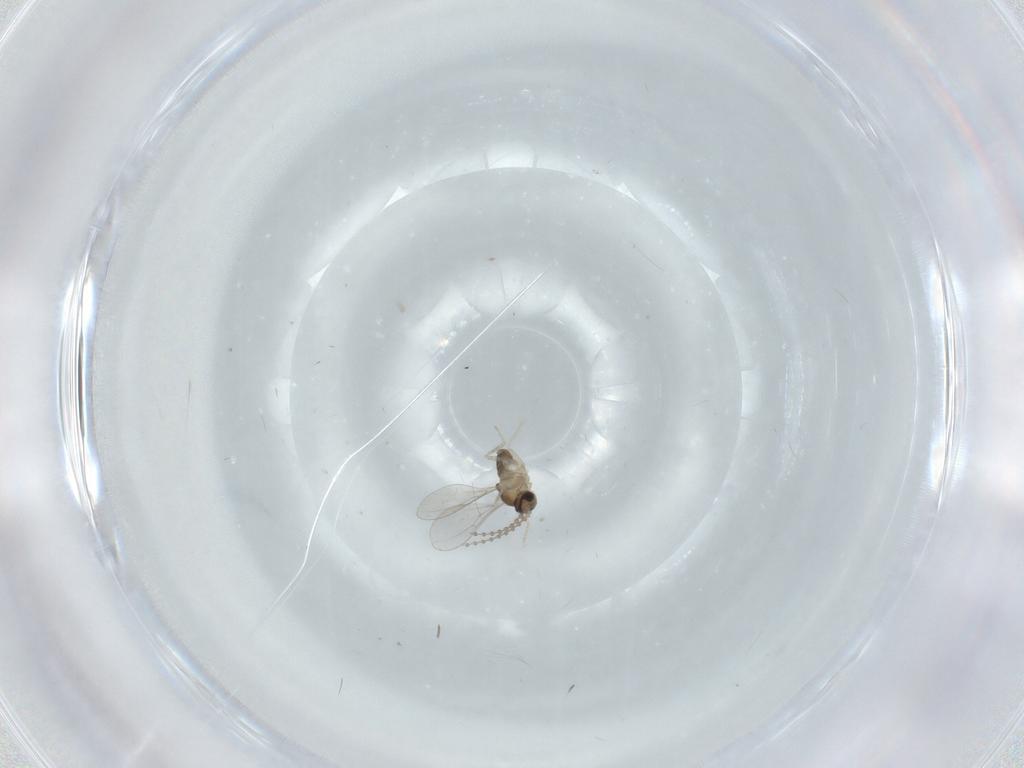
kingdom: Animalia
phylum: Arthropoda
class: Insecta
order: Diptera
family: Cecidomyiidae
